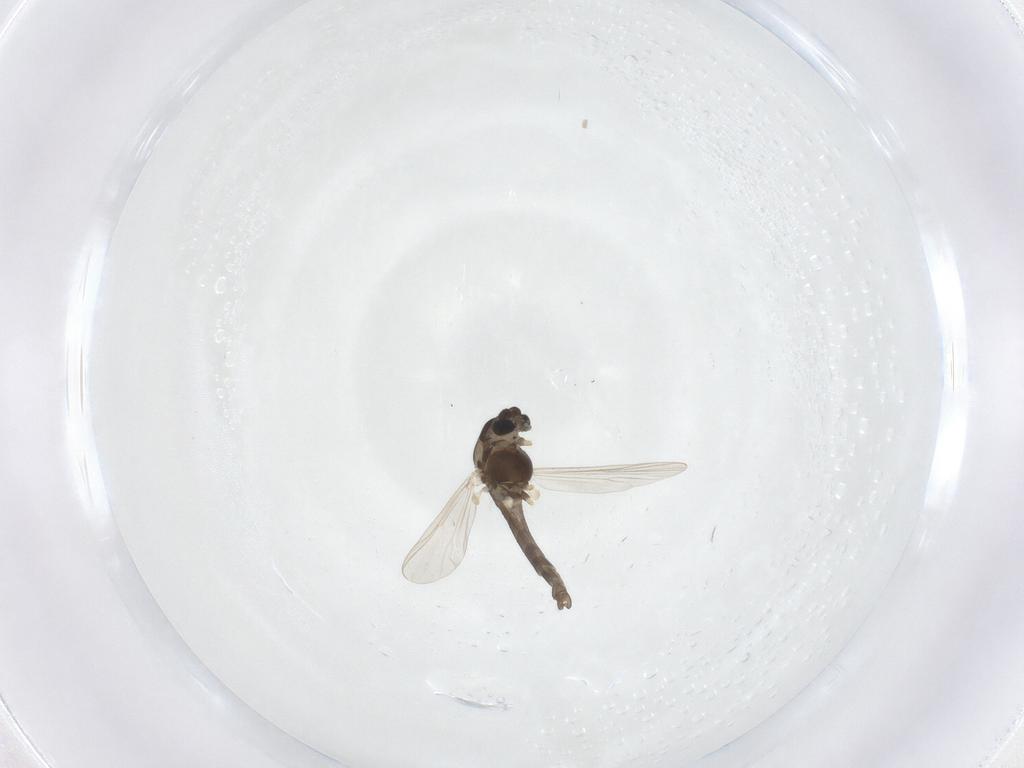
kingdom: Animalia
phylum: Arthropoda
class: Insecta
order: Diptera
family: Chironomidae
